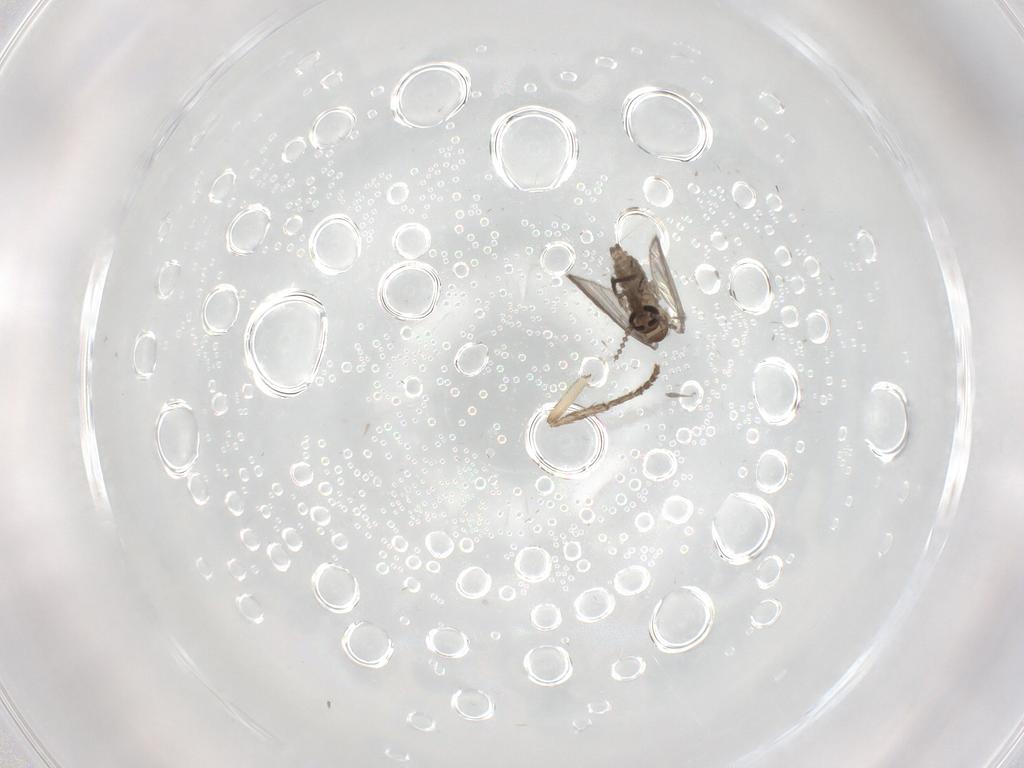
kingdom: Animalia
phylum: Arthropoda
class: Insecta
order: Diptera
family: Psychodidae
